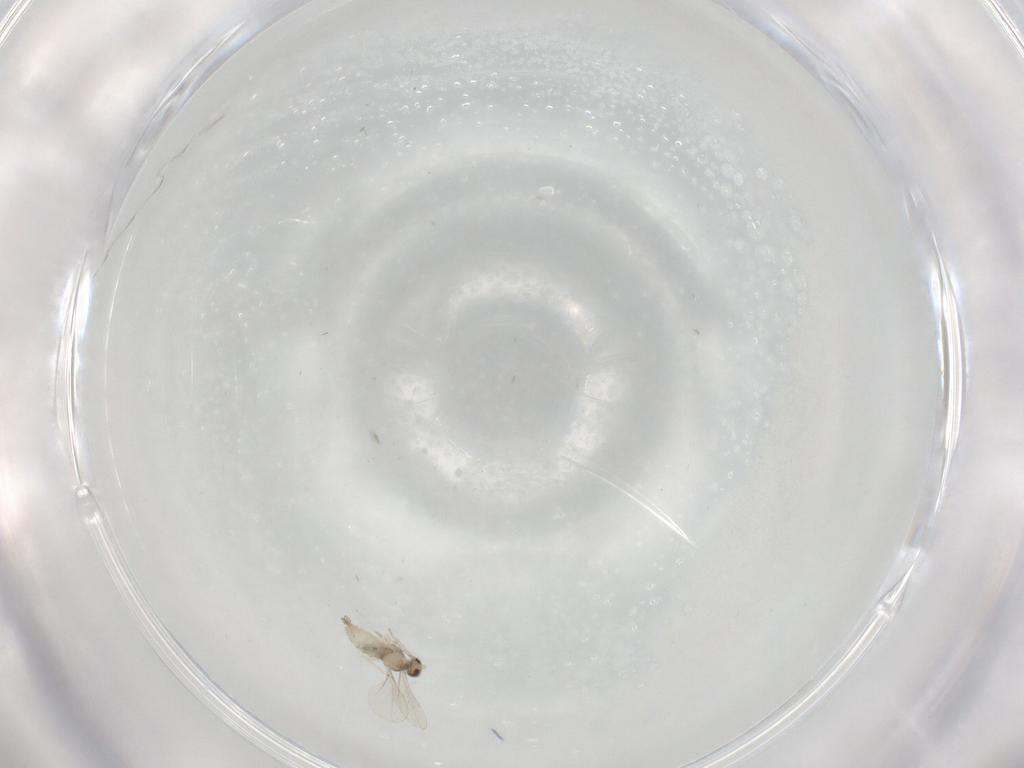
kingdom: Animalia
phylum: Arthropoda
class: Insecta
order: Diptera
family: Cecidomyiidae
